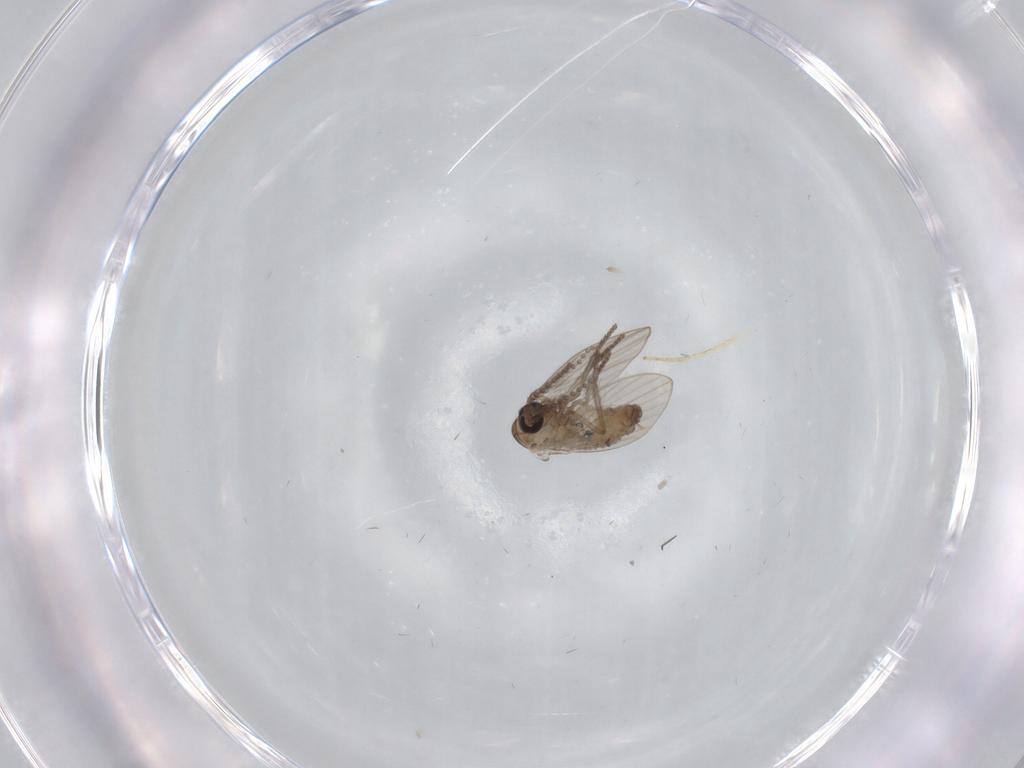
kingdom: Animalia
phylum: Arthropoda
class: Insecta
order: Diptera
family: Psychodidae
